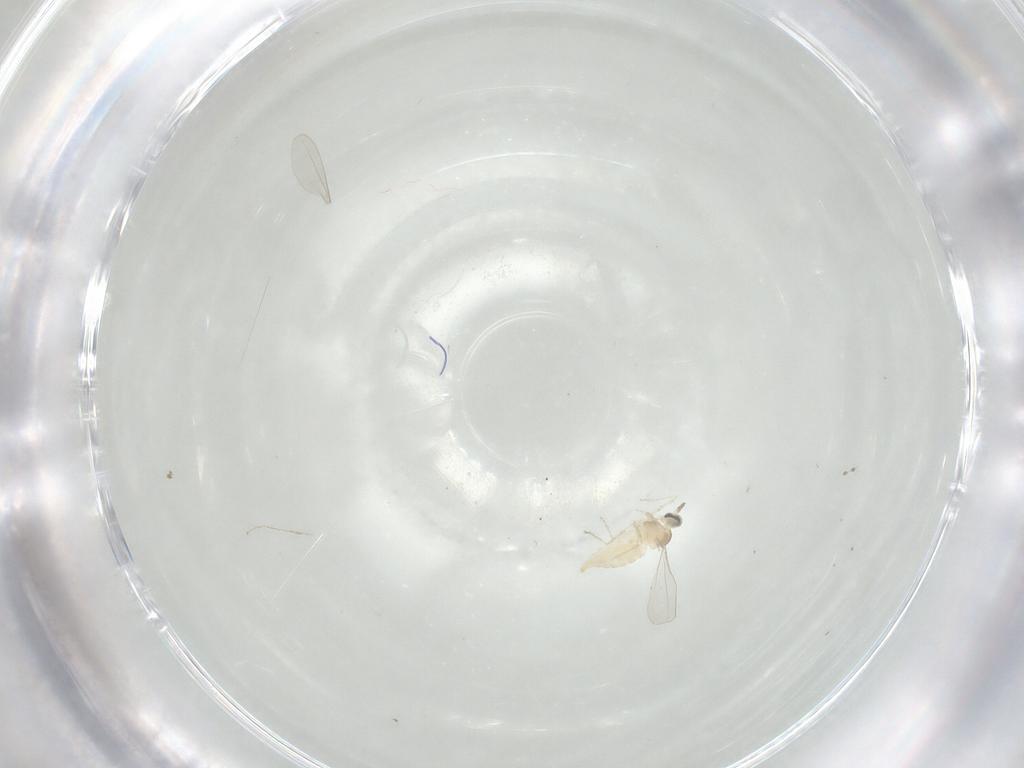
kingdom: Animalia
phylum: Arthropoda
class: Insecta
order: Diptera
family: Cecidomyiidae
